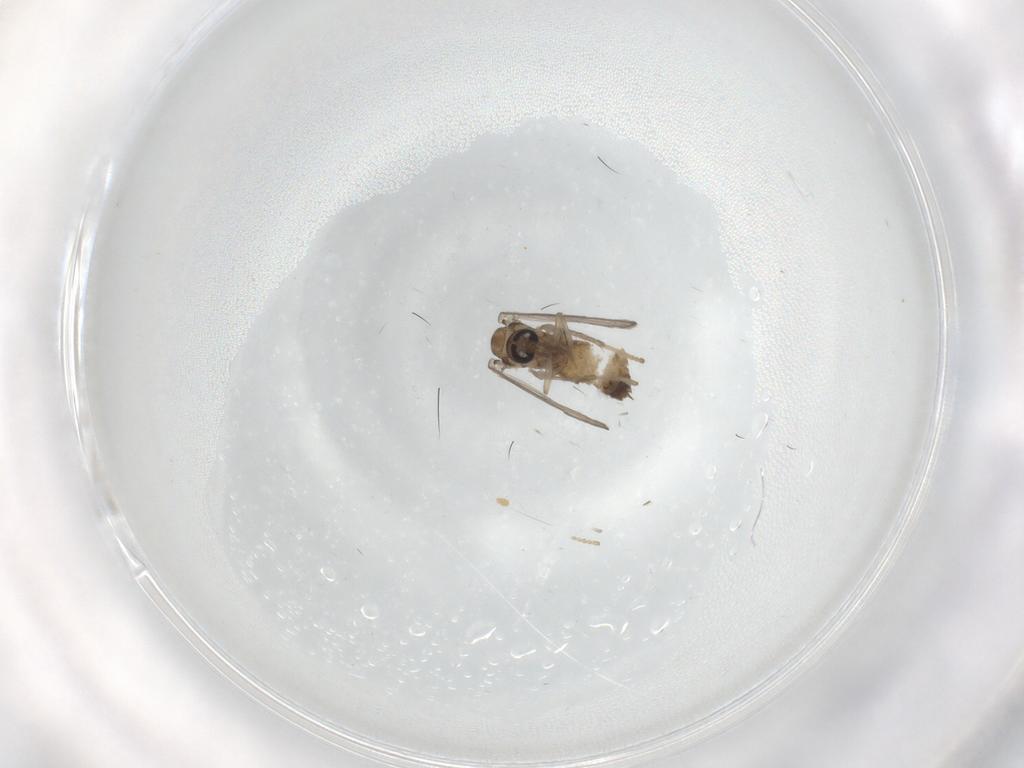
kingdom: Animalia
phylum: Arthropoda
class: Insecta
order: Diptera
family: Psychodidae
